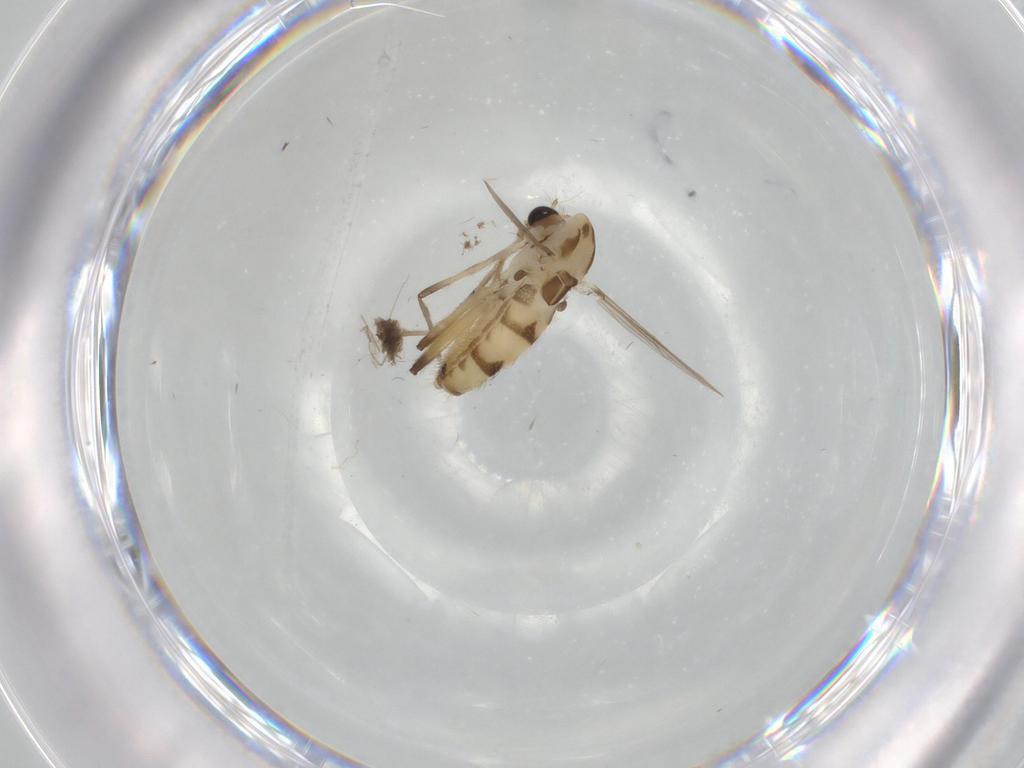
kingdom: Animalia
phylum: Arthropoda
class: Insecta
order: Diptera
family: Chironomidae
